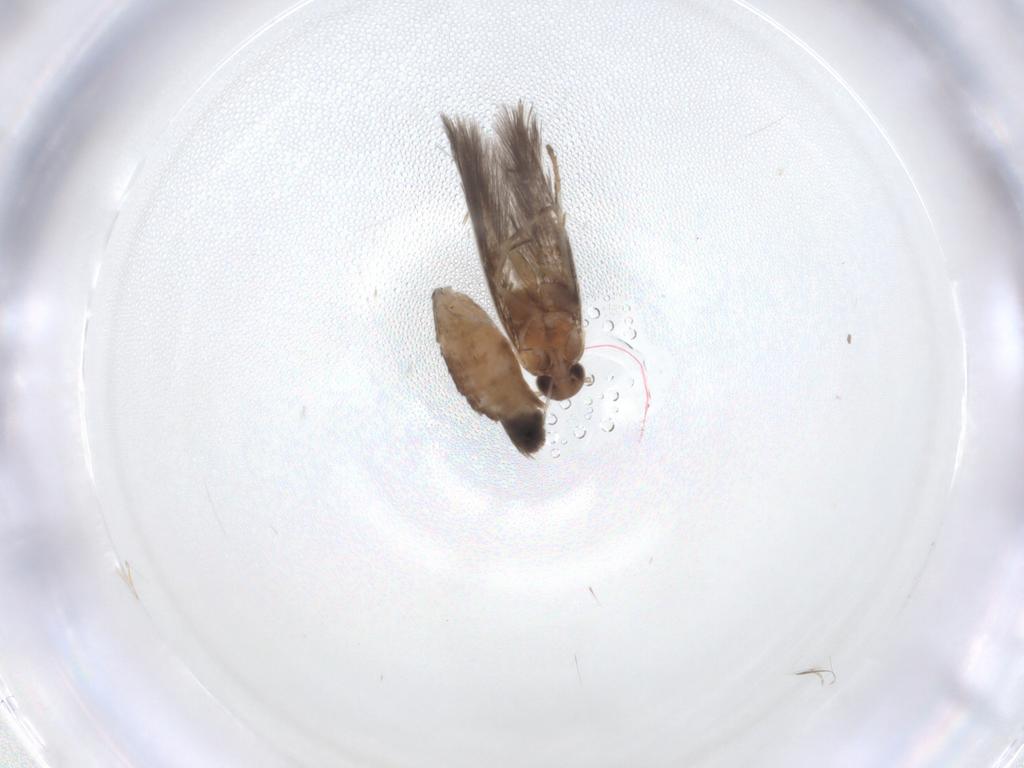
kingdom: Animalia
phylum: Arthropoda
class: Insecta
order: Lepidoptera
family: Elachistidae
